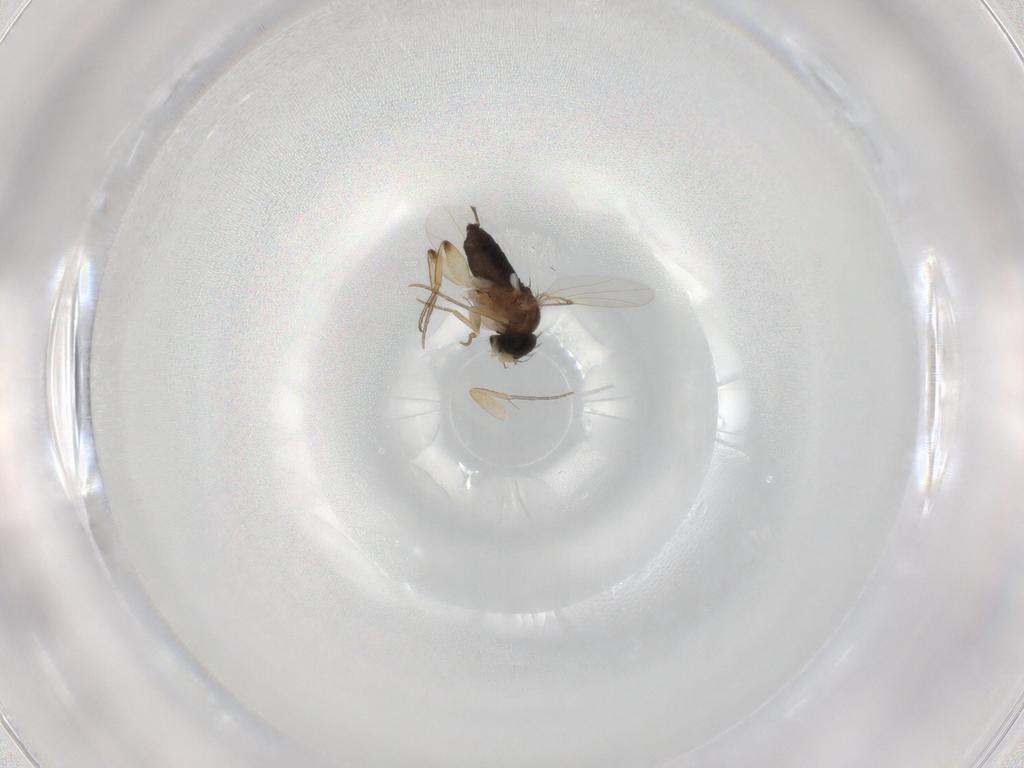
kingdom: Animalia
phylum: Arthropoda
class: Insecta
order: Diptera
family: Phoridae
